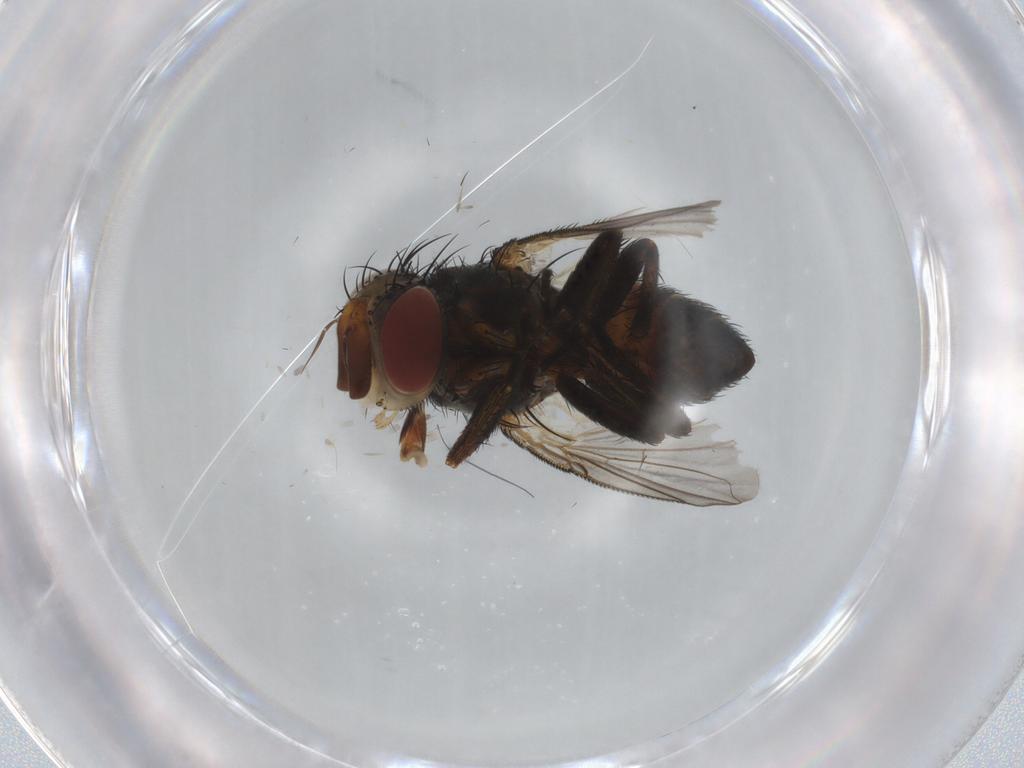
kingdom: Animalia
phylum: Arthropoda
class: Insecta
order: Diptera
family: Tachinidae
